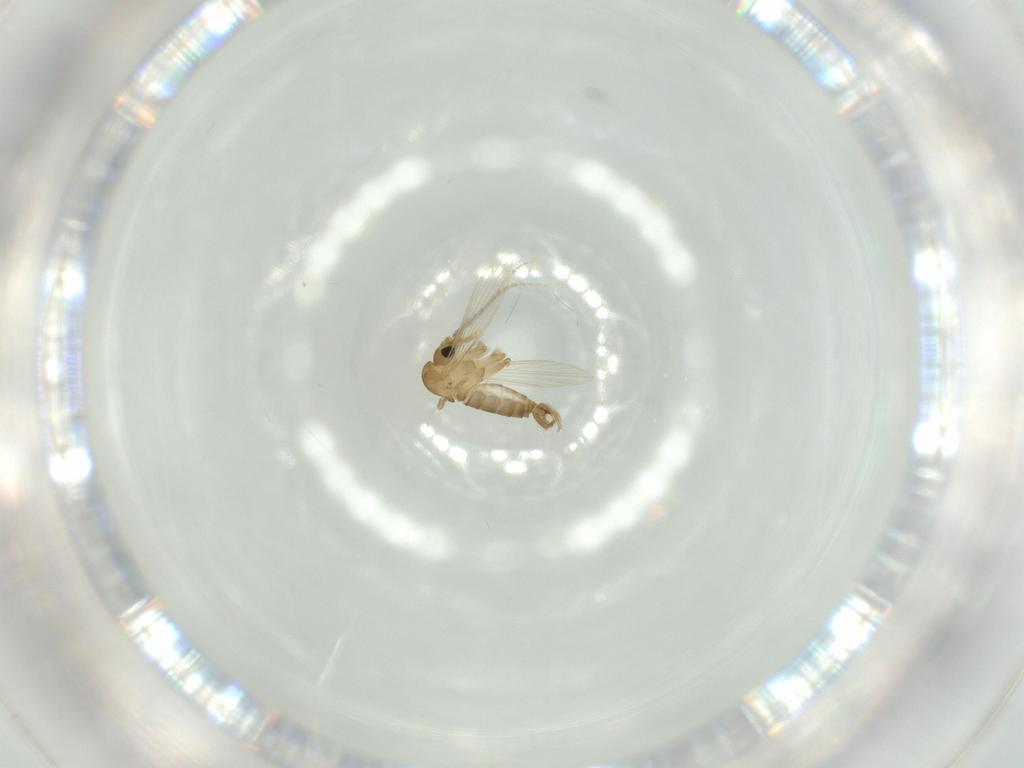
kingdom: Animalia
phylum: Arthropoda
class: Insecta
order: Diptera
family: Psychodidae
